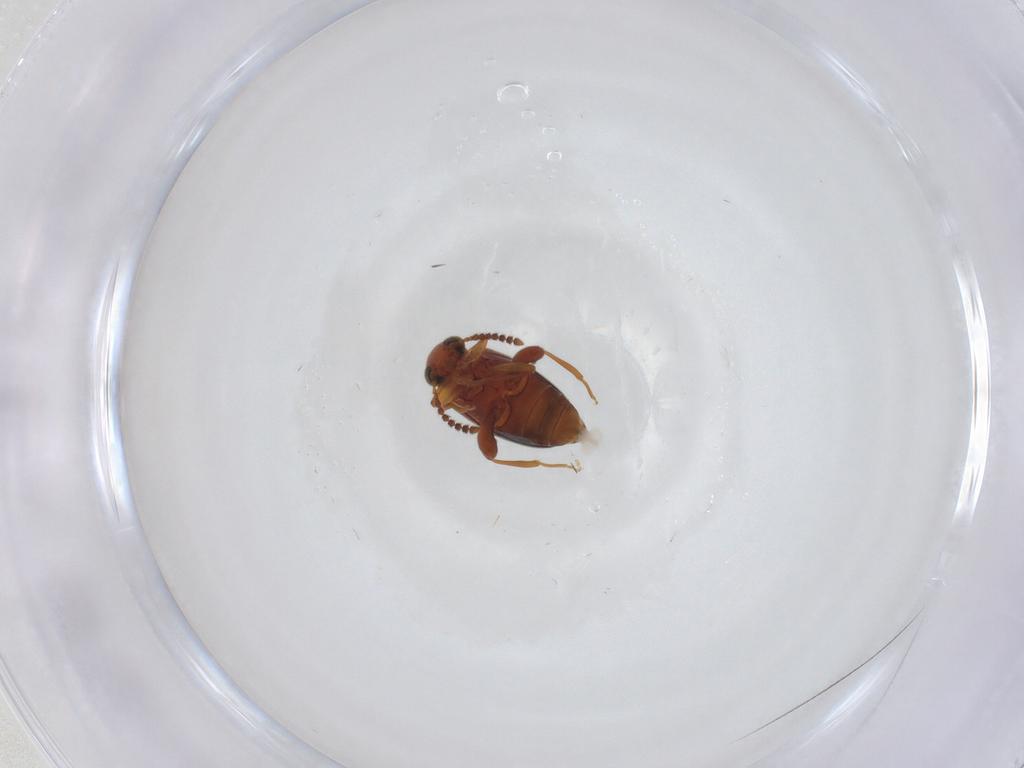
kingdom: Animalia
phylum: Arthropoda
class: Insecta
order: Coleoptera
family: Aderidae
